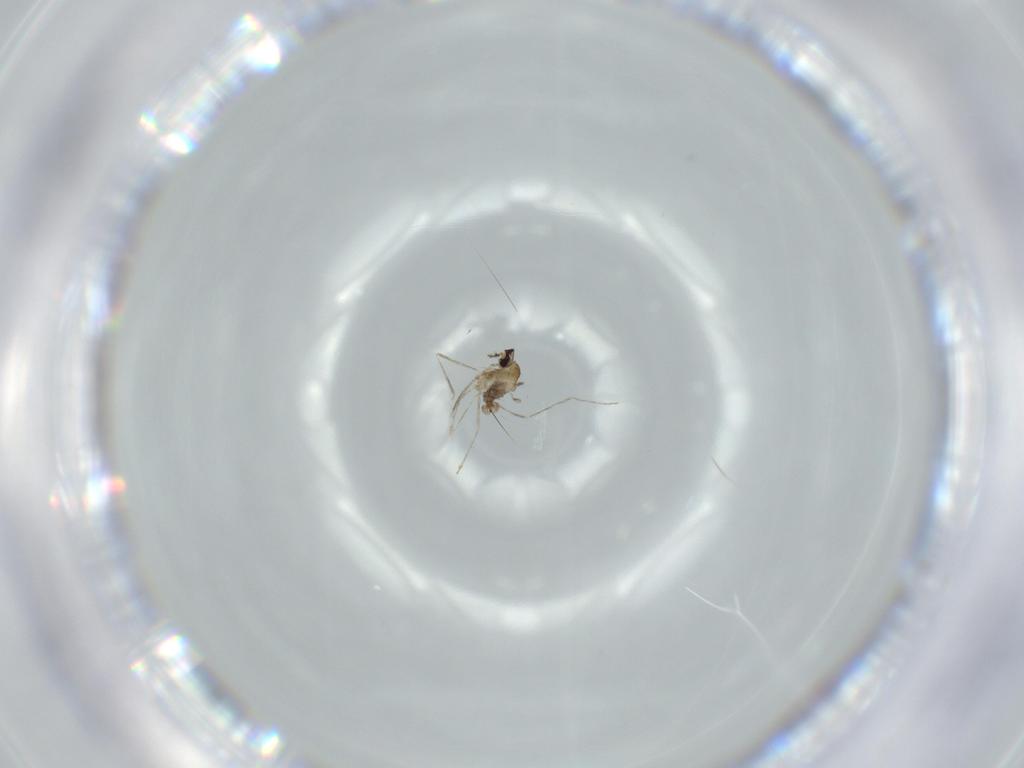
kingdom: Animalia
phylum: Arthropoda
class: Insecta
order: Diptera
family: Cecidomyiidae
